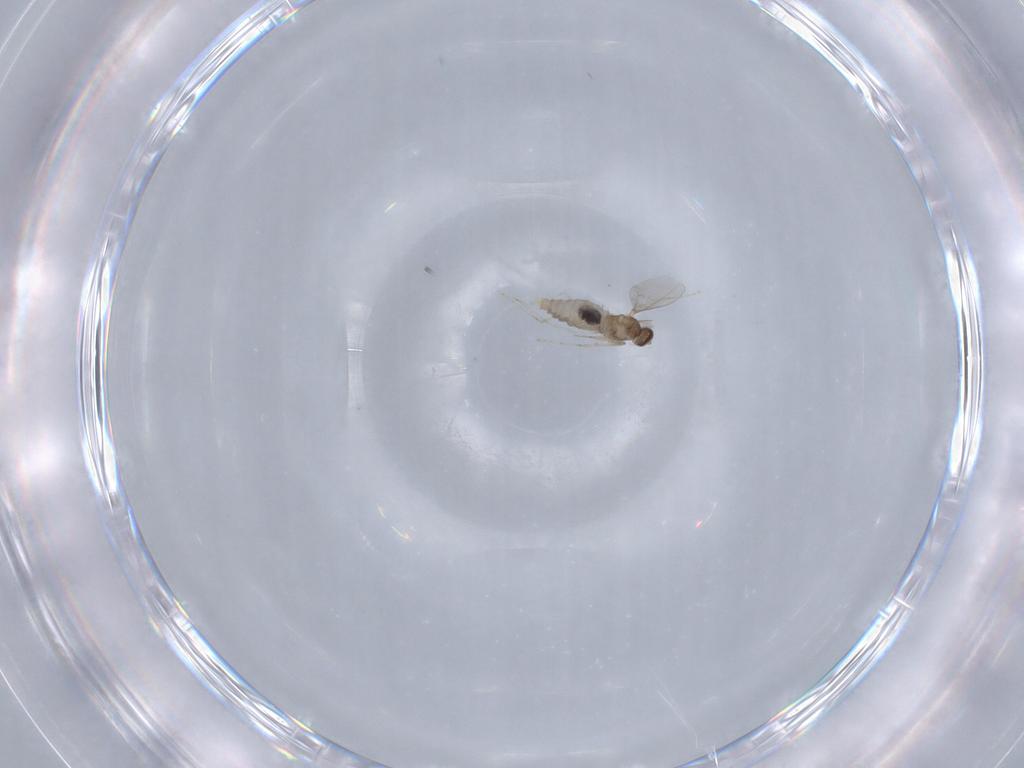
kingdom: Animalia
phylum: Arthropoda
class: Insecta
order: Diptera
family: Cecidomyiidae
